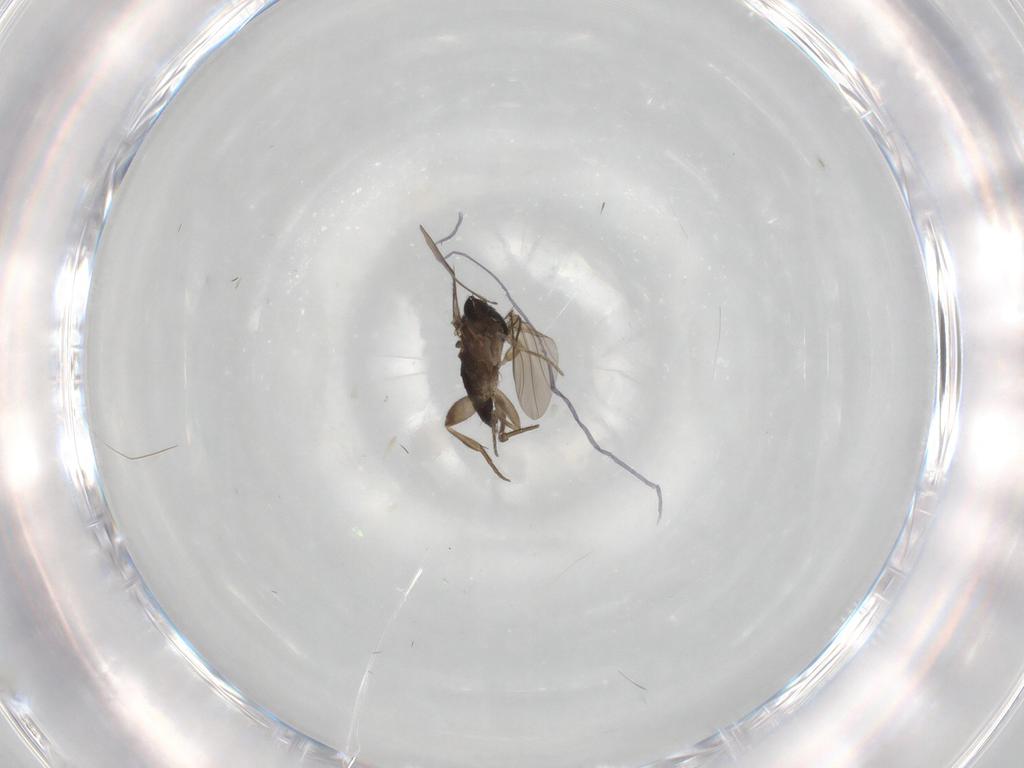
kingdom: Animalia
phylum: Arthropoda
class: Insecta
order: Diptera
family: Phoridae
